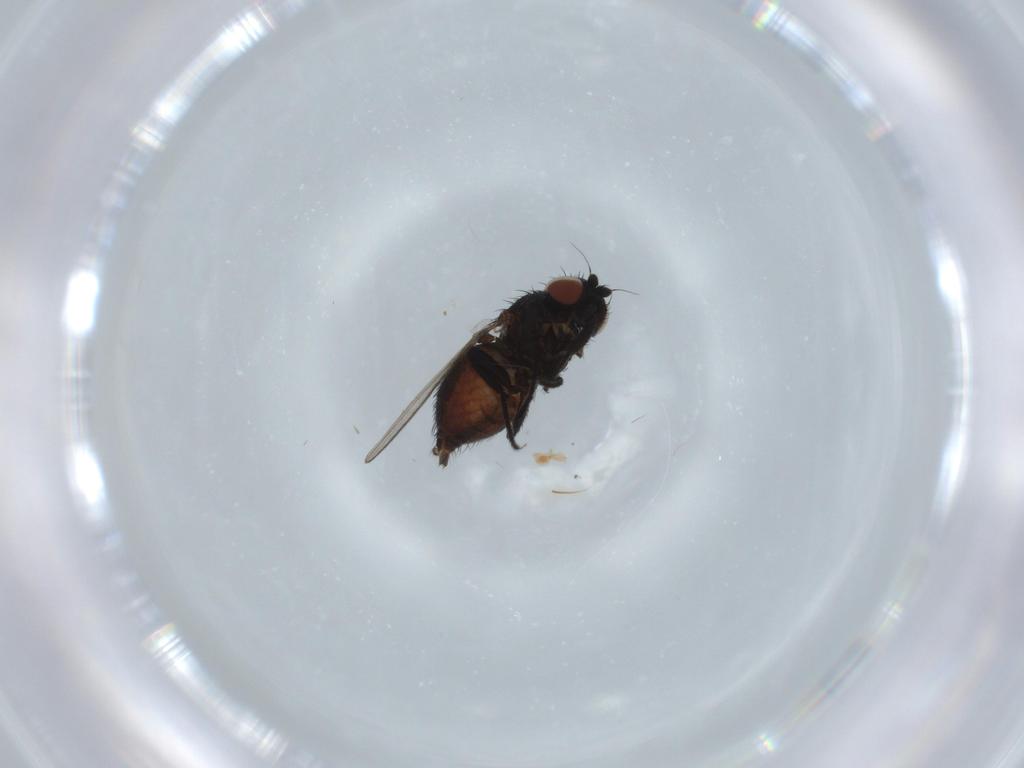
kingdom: Animalia
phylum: Arthropoda
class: Insecta
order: Diptera
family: Milichiidae
